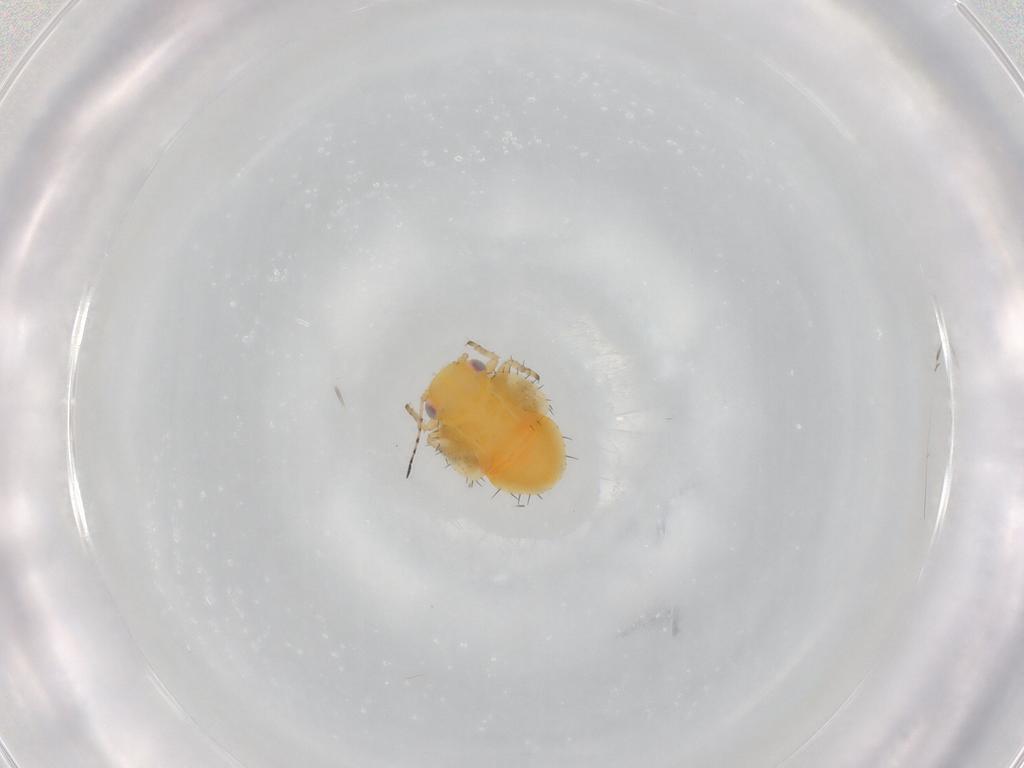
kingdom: Animalia
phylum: Arthropoda
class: Insecta
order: Hemiptera
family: Psyllidae
